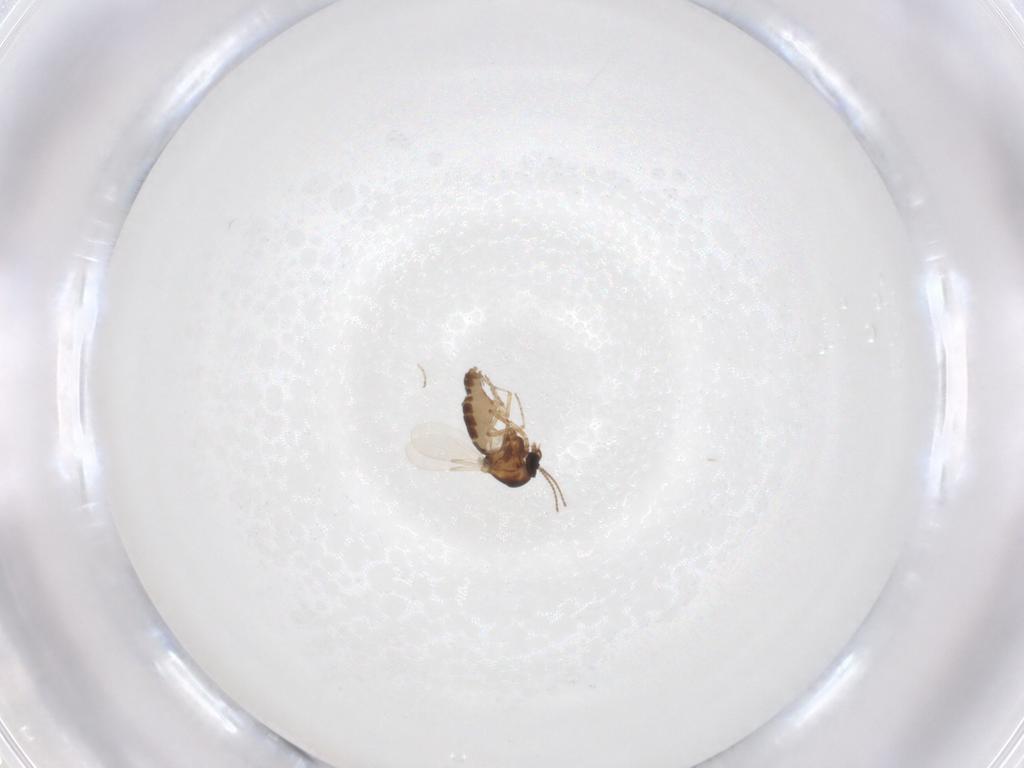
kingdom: Animalia
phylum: Arthropoda
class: Insecta
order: Diptera
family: Ceratopogonidae
